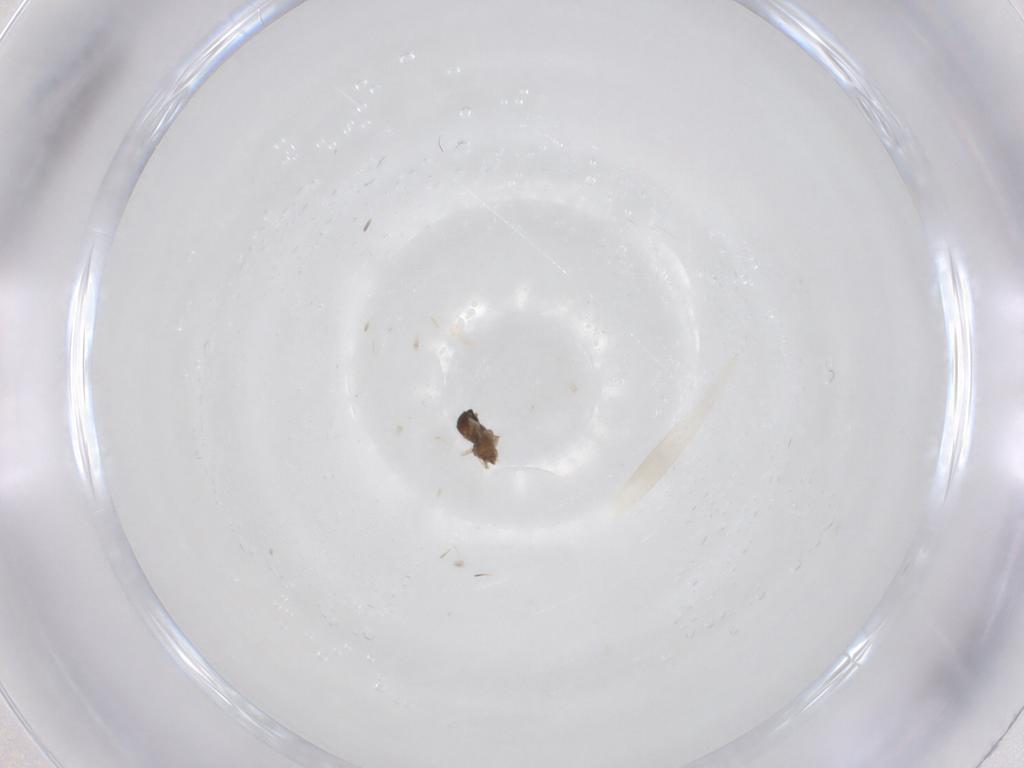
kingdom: Animalia
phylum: Arthropoda
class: Insecta
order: Diptera
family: Cecidomyiidae
